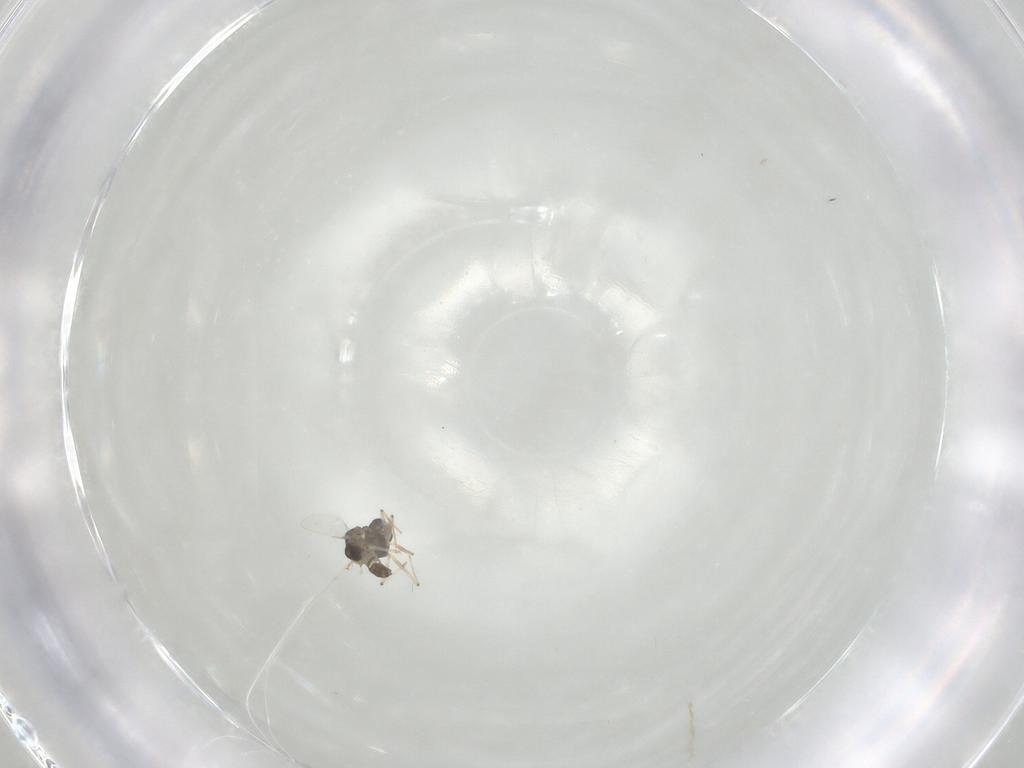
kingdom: Animalia
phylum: Arthropoda
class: Insecta
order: Diptera
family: Chironomidae
